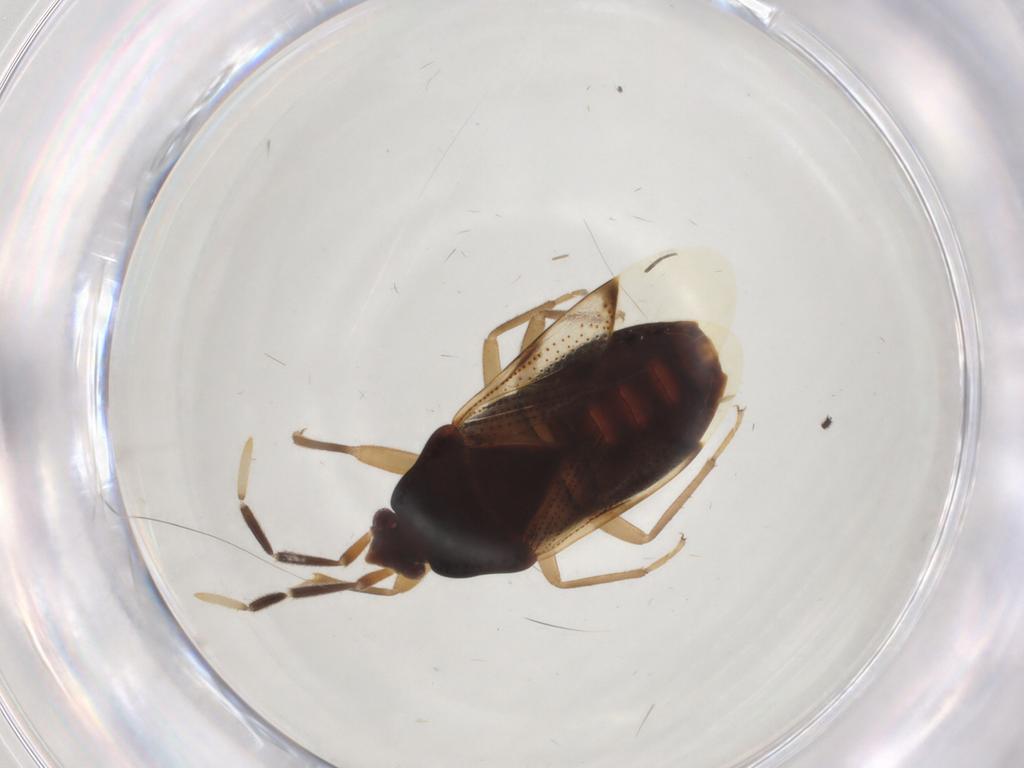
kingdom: Animalia
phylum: Arthropoda
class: Insecta
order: Hemiptera
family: Rhyparochromidae
